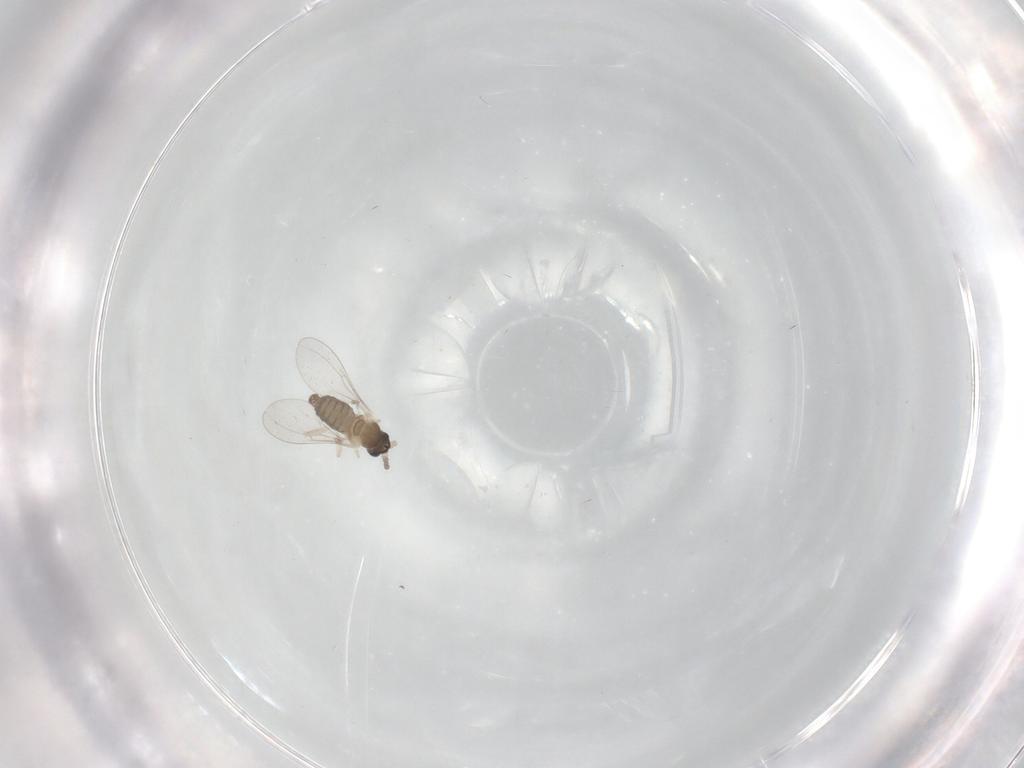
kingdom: Animalia
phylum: Arthropoda
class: Insecta
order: Diptera
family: Cecidomyiidae
